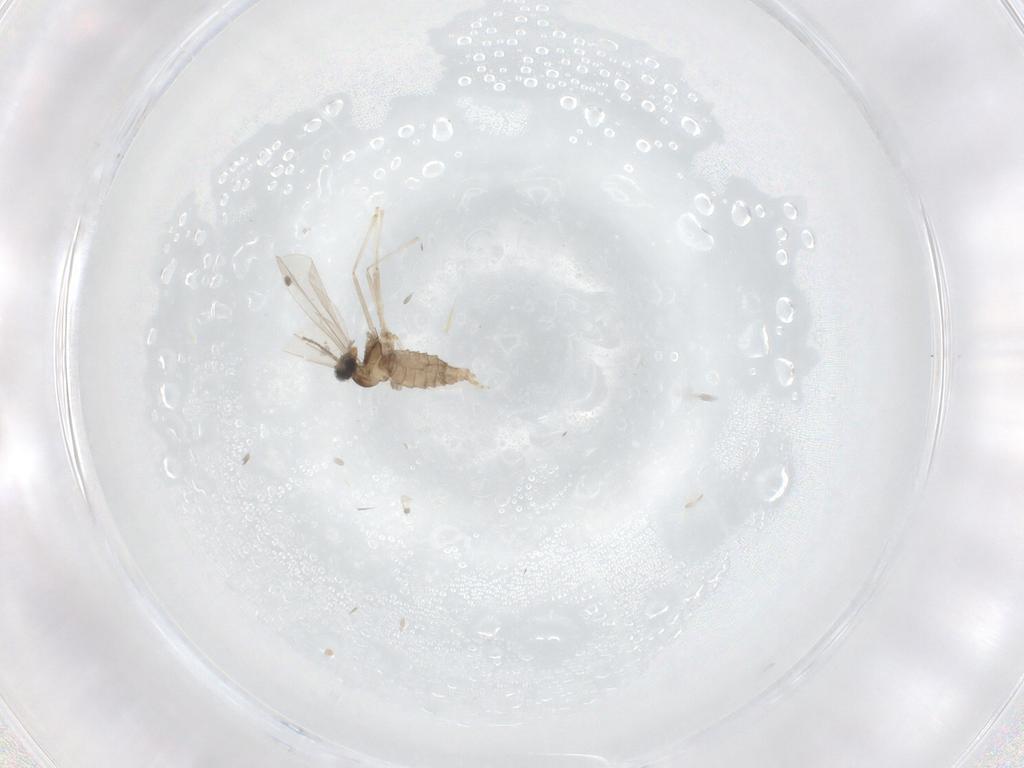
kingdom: Animalia
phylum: Arthropoda
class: Insecta
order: Diptera
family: Cecidomyiidae
